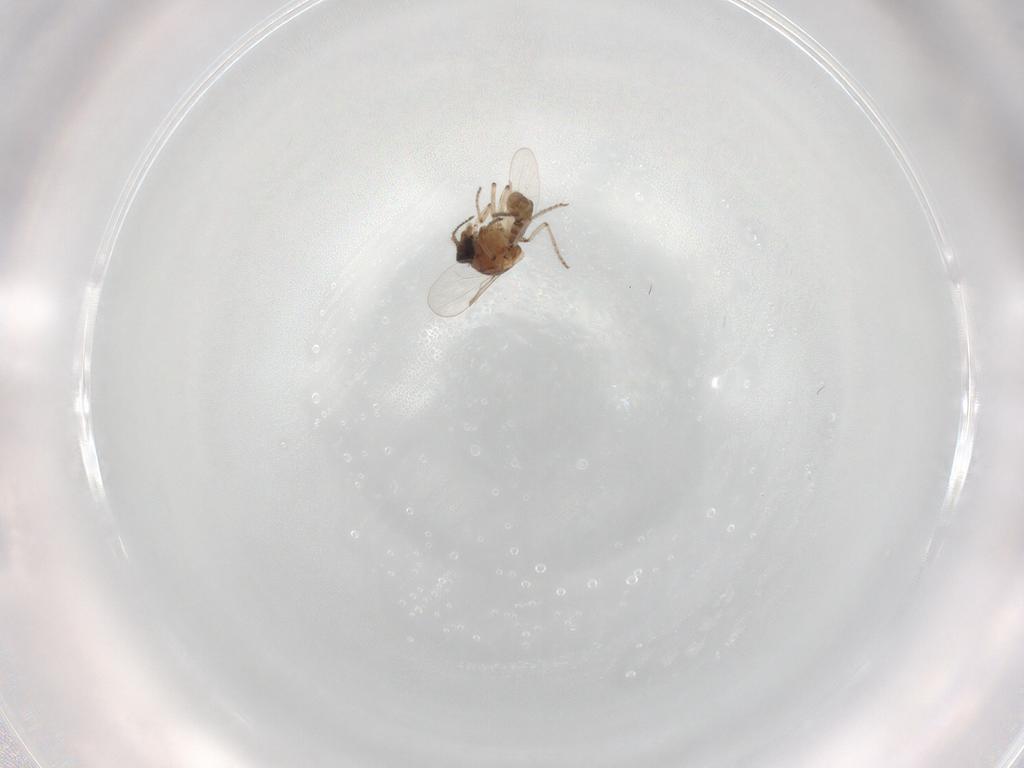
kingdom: Animalia
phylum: Arthropoda
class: Insecta
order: Diptera
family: Ceratopogonidae
